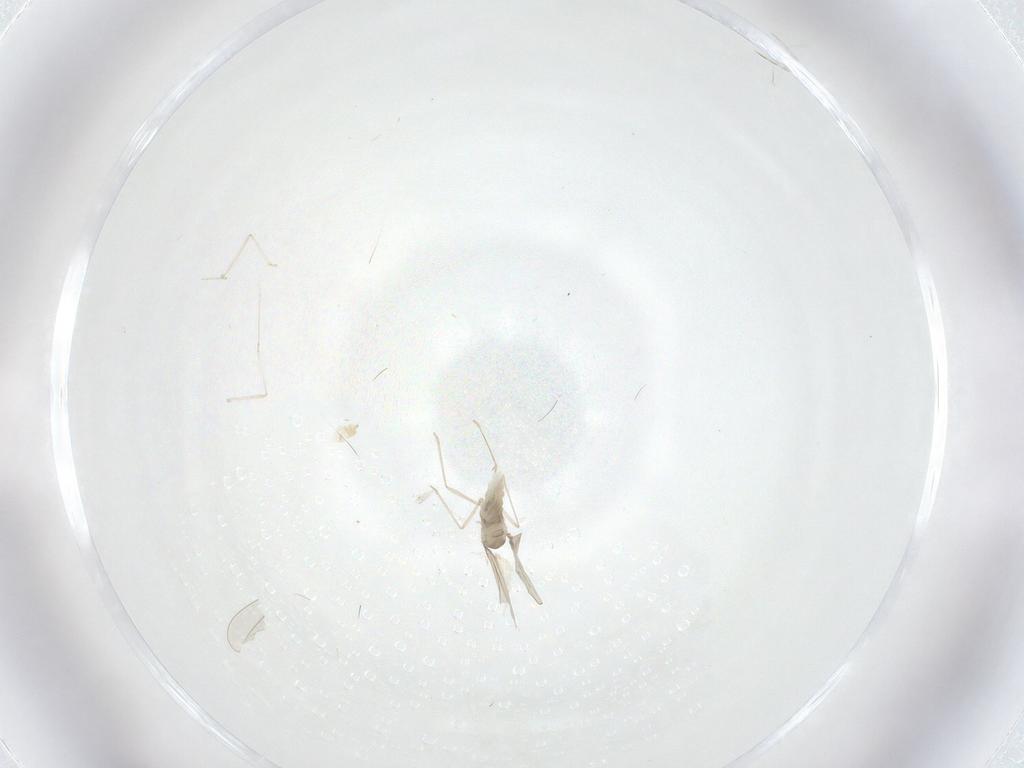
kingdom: Animalia
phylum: Arthropoda
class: Insecta
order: Diptera
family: Cecidomyiidae
